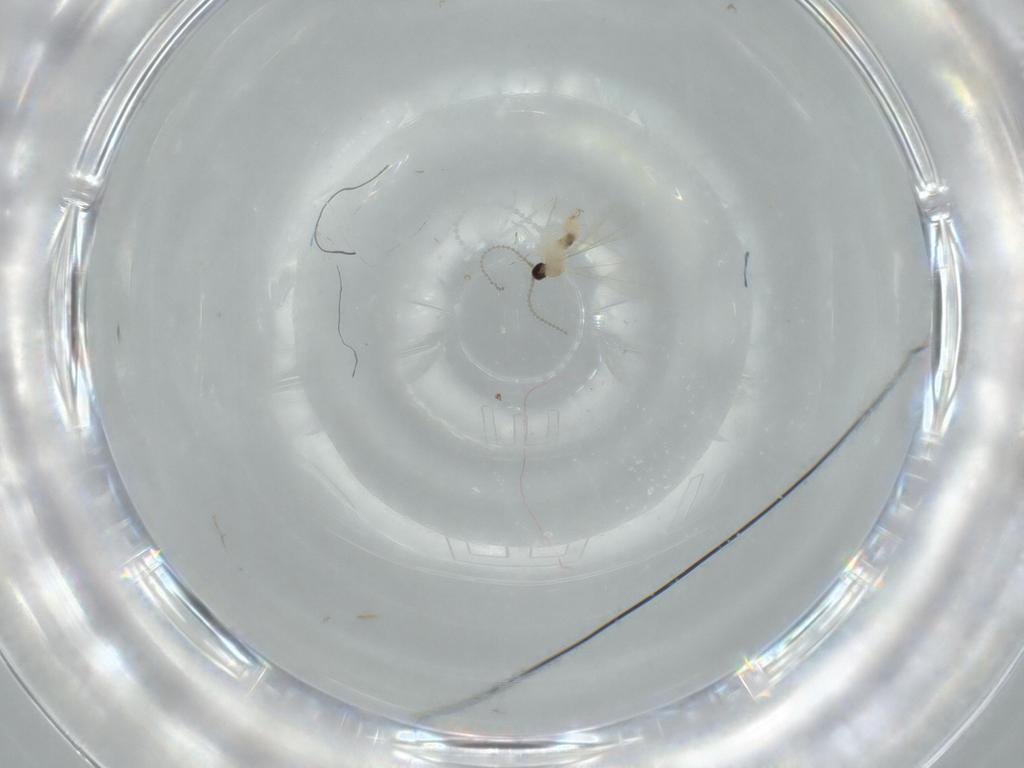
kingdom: Animalia
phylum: Arthropoda
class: Insecta
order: Diptera
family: Cecidomyiidae
